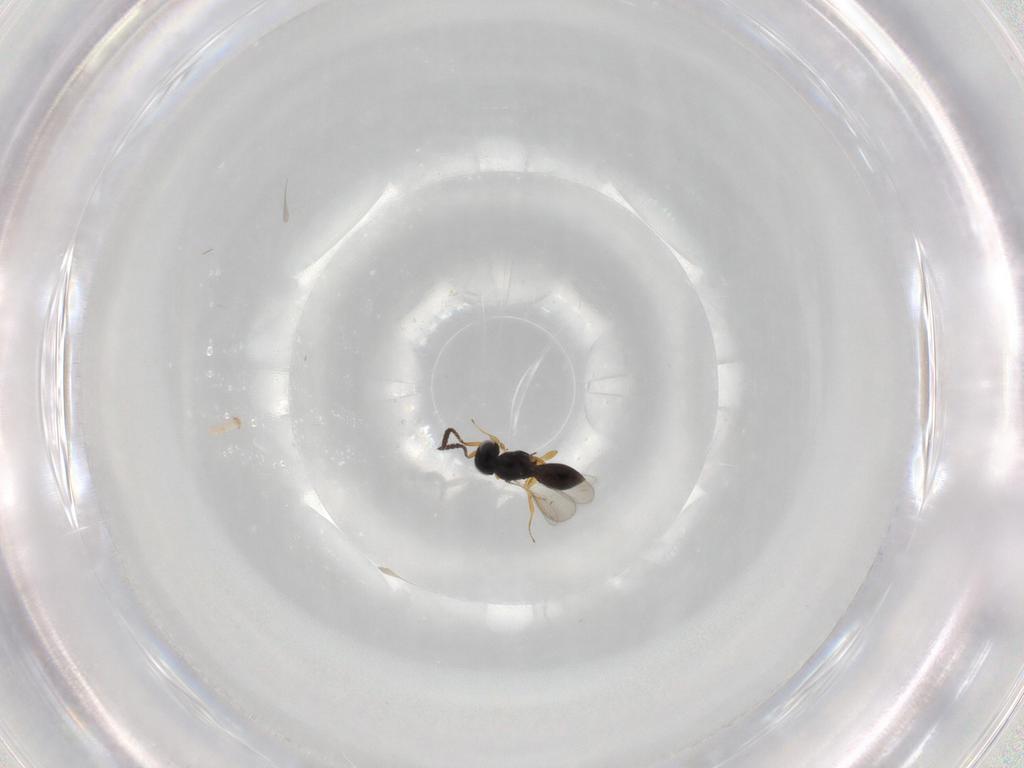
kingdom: Animalia
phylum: Arthropoda
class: Insecta
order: Hymenoptera
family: Scelionidae
